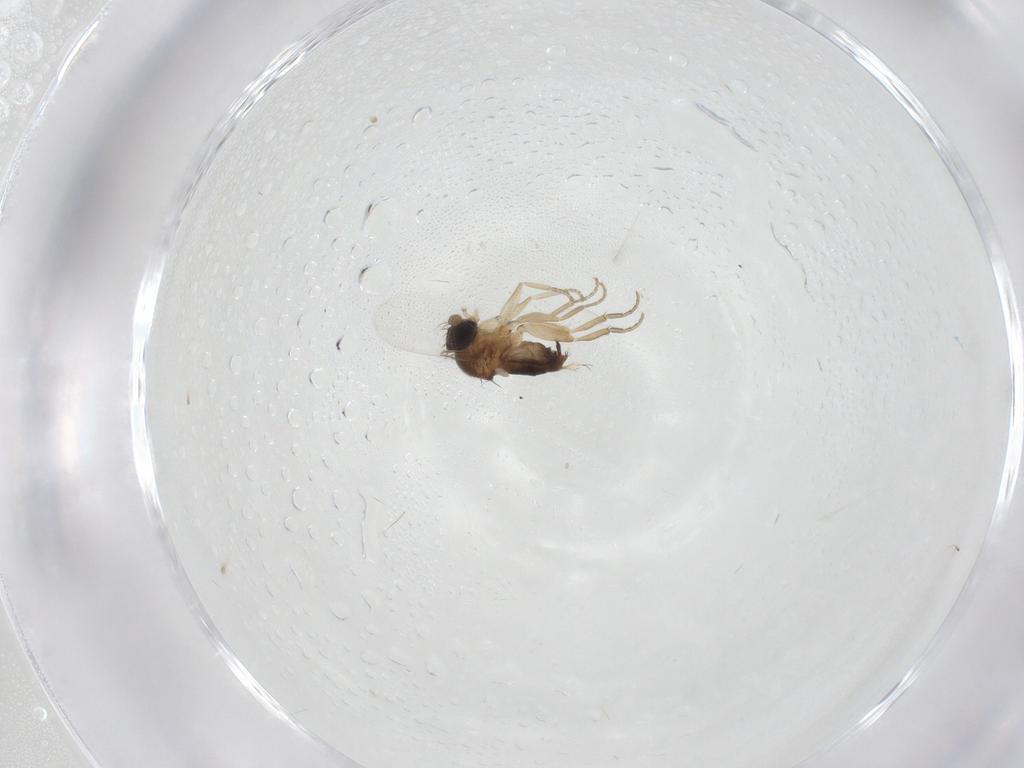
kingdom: Animalia
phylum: Arthropoda
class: Insecta
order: Diptera
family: Phoridae
